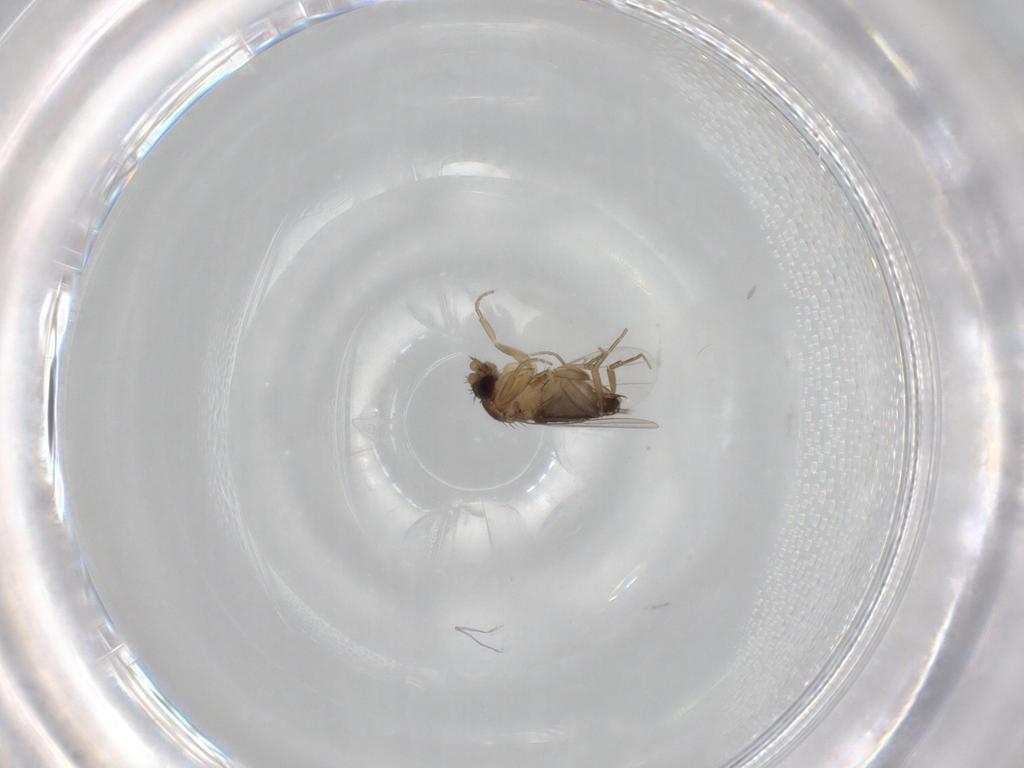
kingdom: Animalia
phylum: Arthropoda
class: Insecta
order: Diptera
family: Phoridae
